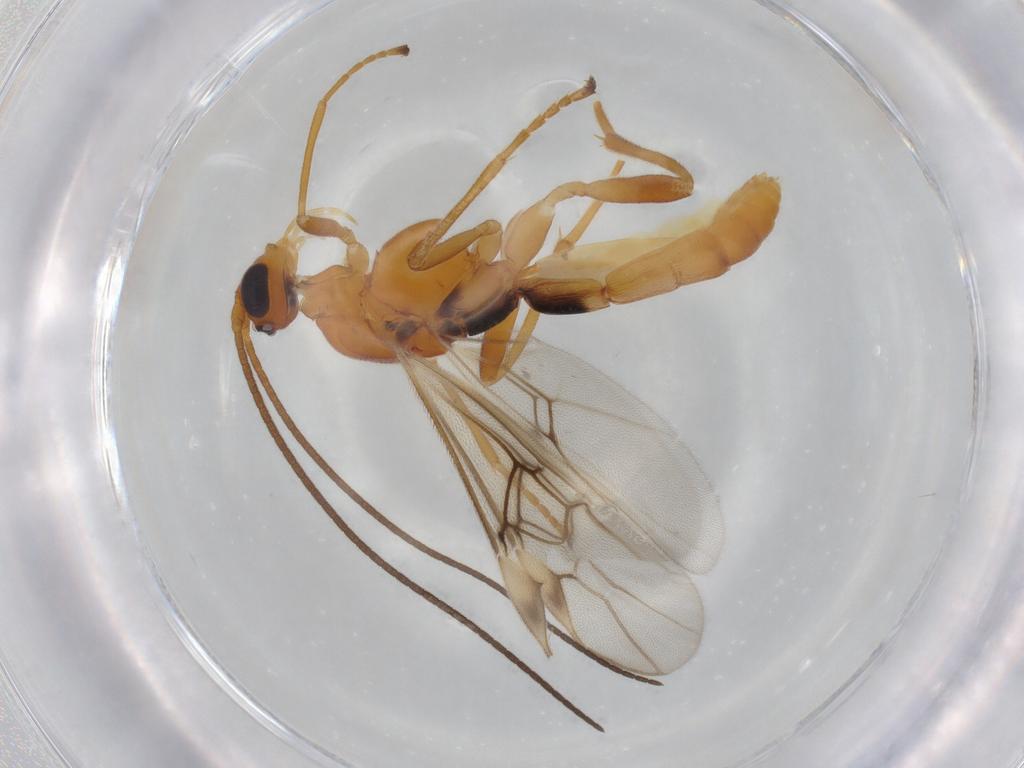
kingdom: Animalia
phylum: Arthropoda
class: Insecta
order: Hymenoptera
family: Braconidae
